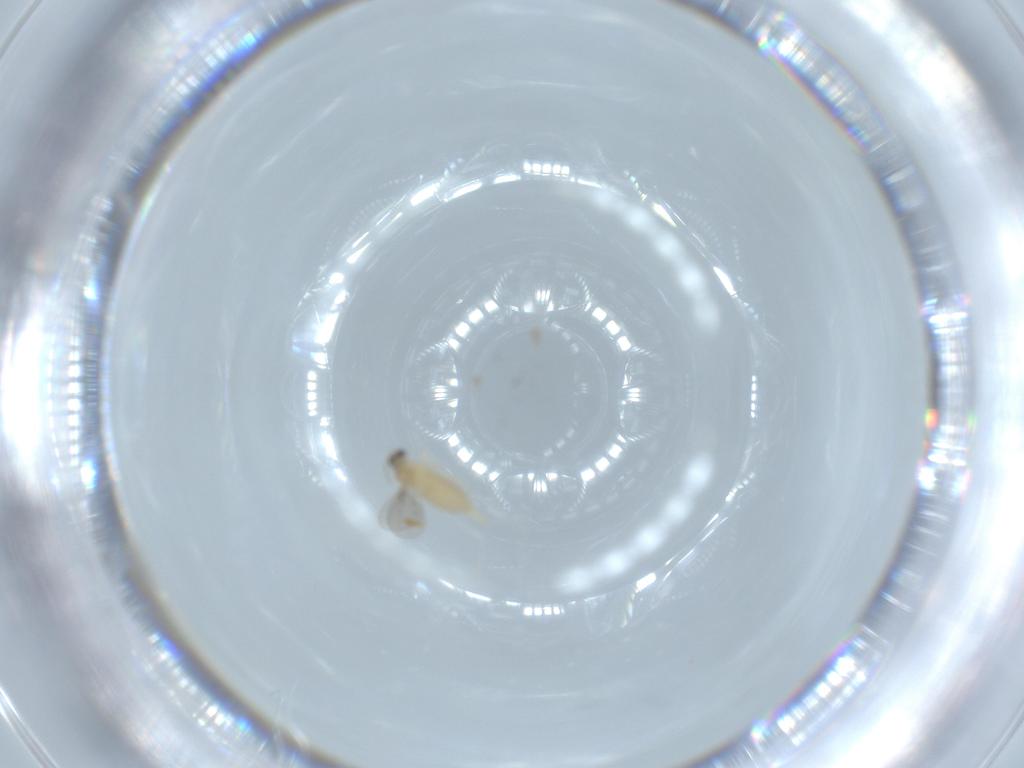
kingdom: Animalia
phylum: Arthropoda
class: Insecta
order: Diptera
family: Cecidomyiidae
